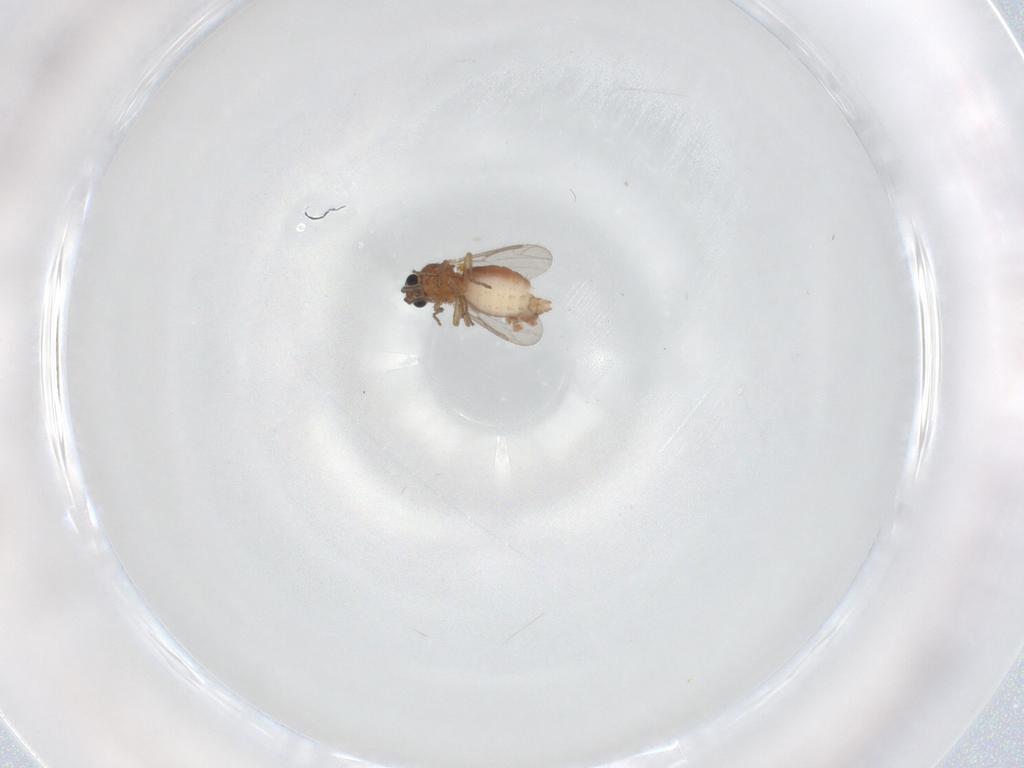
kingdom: Animalia
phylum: Arthropoda
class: Insecta
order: Diptera
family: Ceratopogonidae
